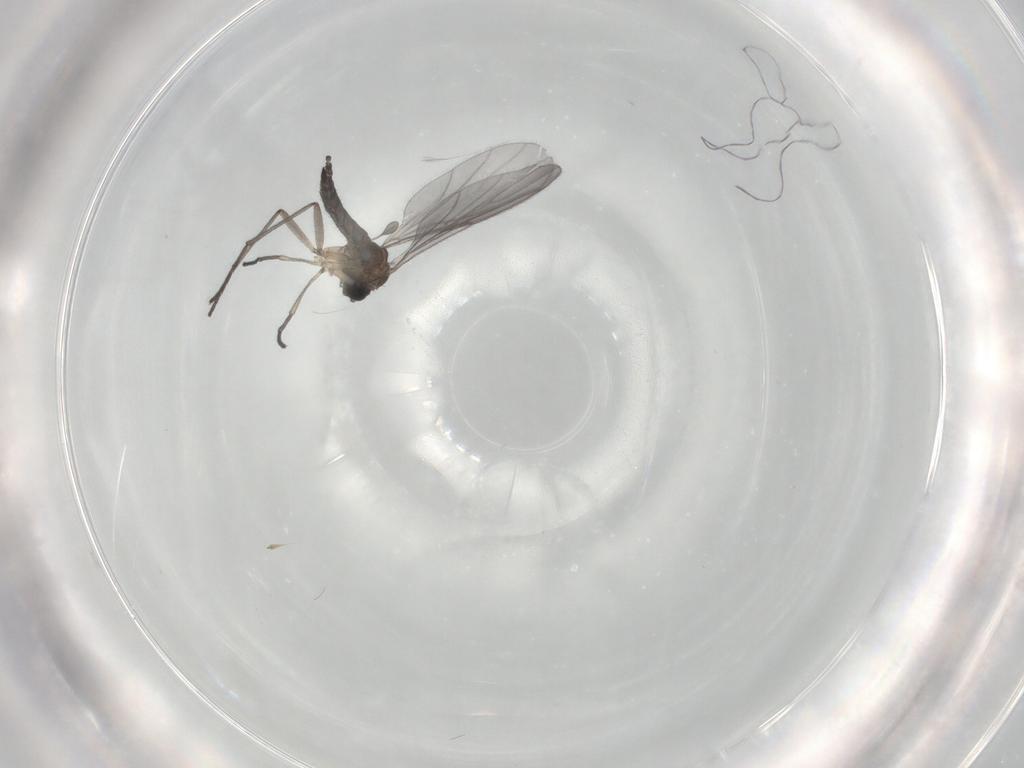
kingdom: Animalia
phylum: Arthropoda
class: Insecta
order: Diptera
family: Sciaridae
